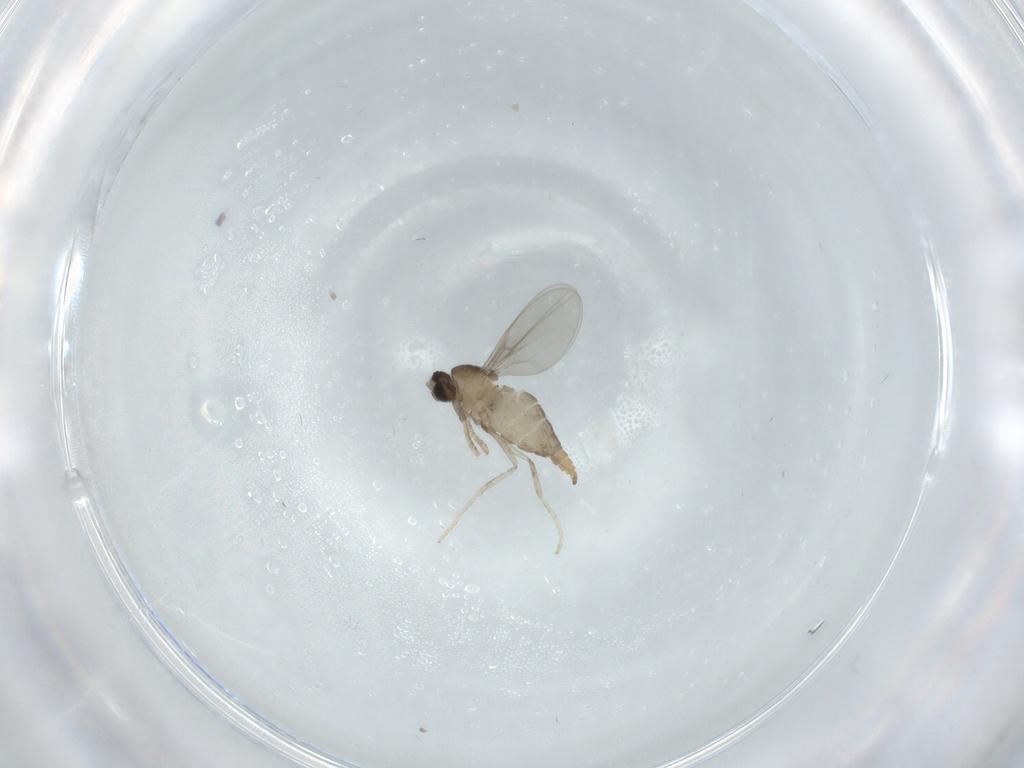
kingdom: Animalia
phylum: Arthropoda
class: Insecta
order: Diptera
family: Cecidomyiidae
